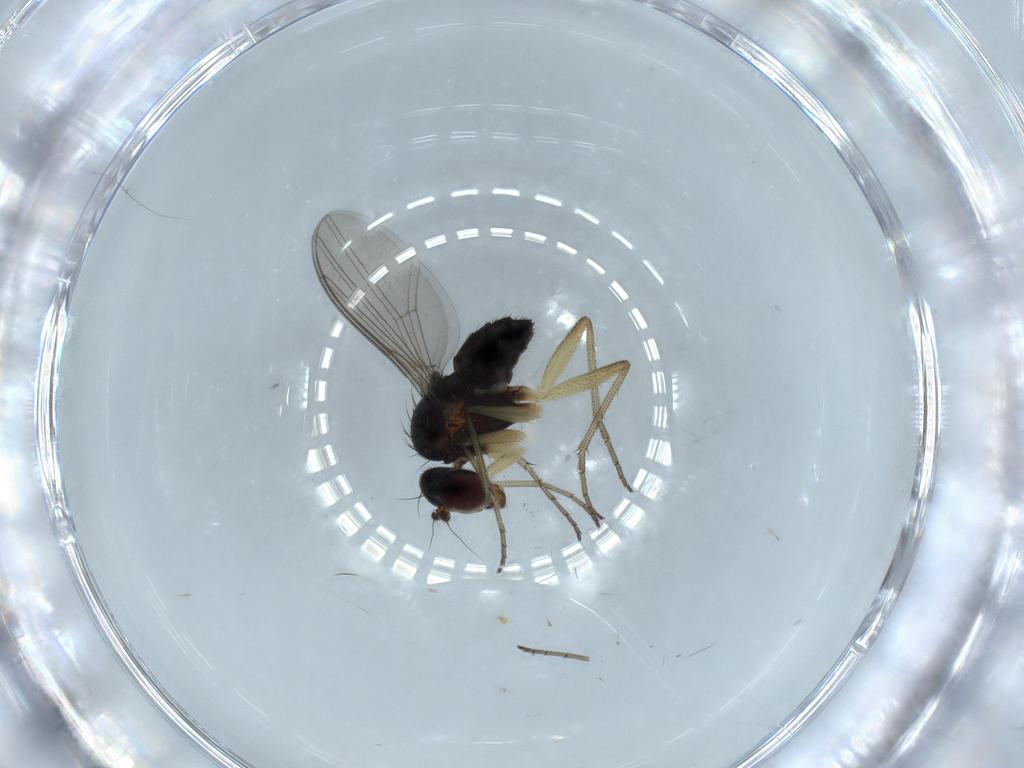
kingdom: Animalia
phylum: Arthropoda
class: Insecta
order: Diptera
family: Dolichopodidae
